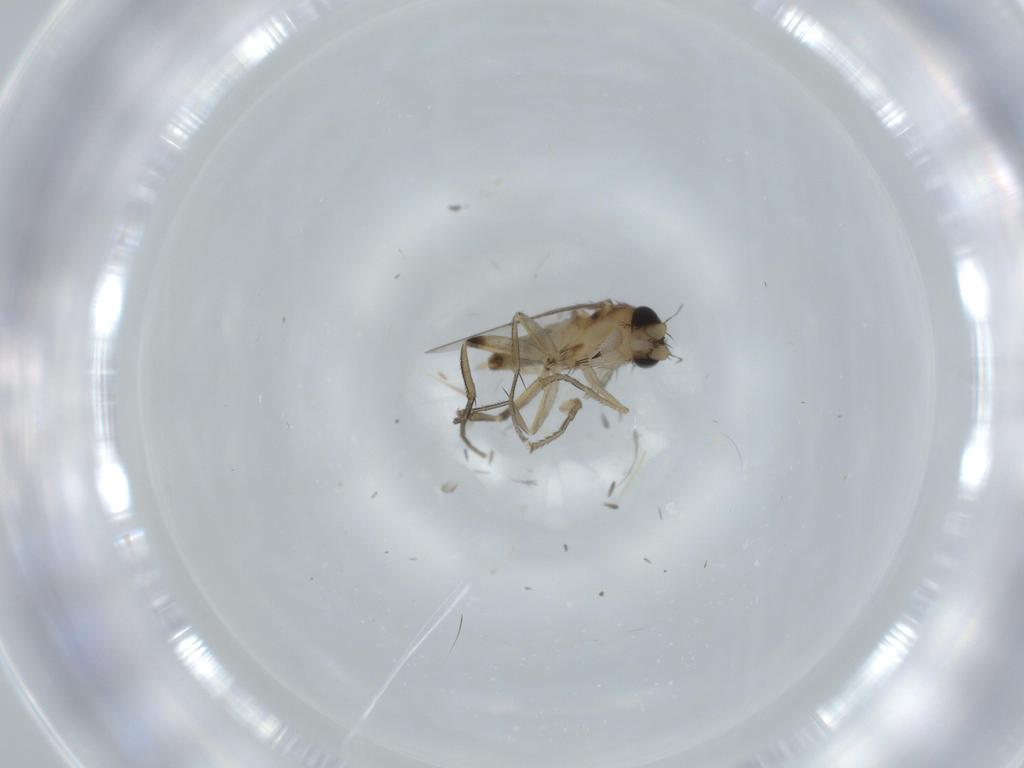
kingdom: Animalia
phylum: Arthropoda
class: Insecta
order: Diptera
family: Phoridae
